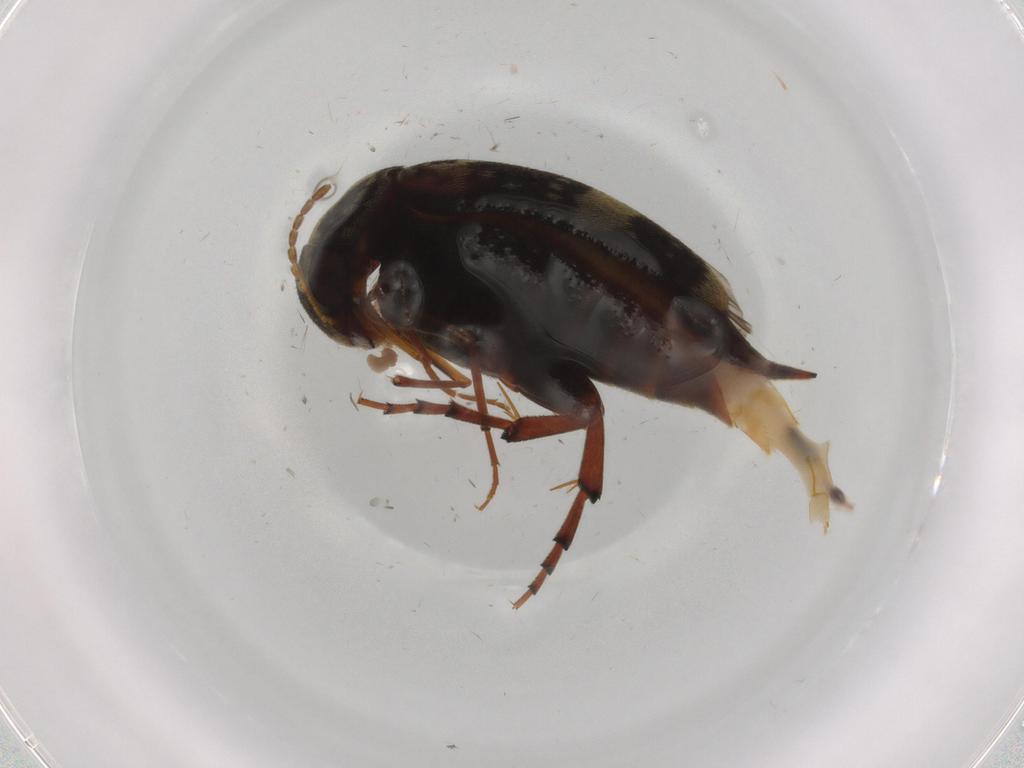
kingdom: Animalia
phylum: Arthropoda
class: Insecta
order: Coleoptera
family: Mordellidae
